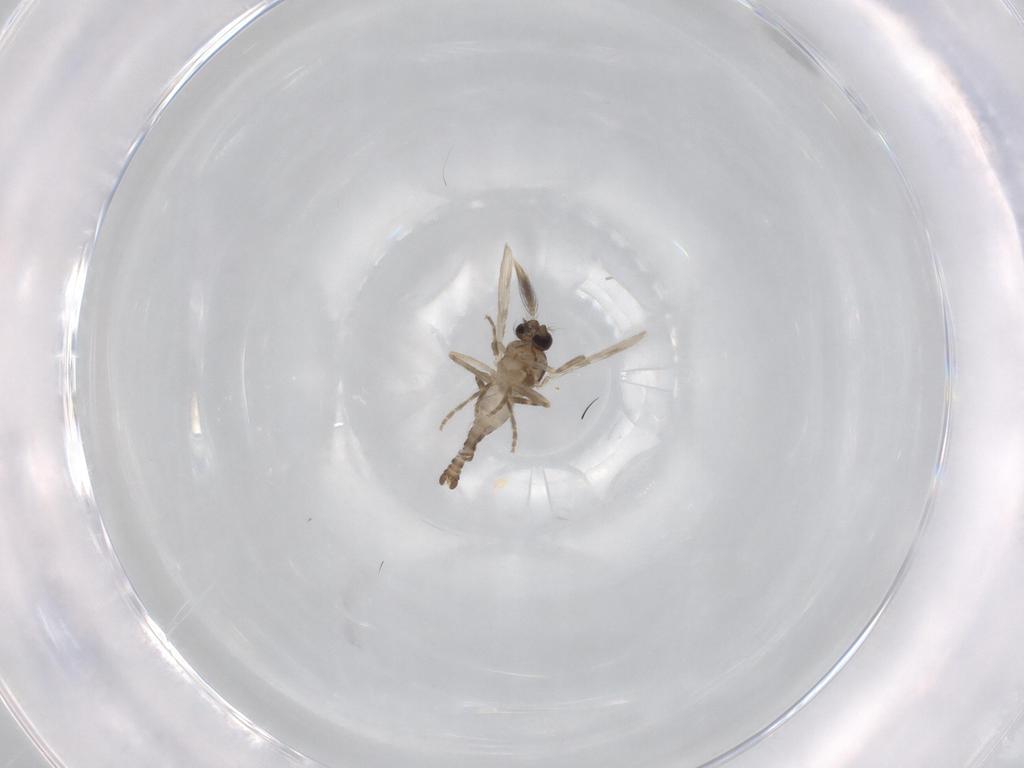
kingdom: Animalia
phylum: Arthropoda
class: Insecta
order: Diptera
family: Ceratopogonidae
